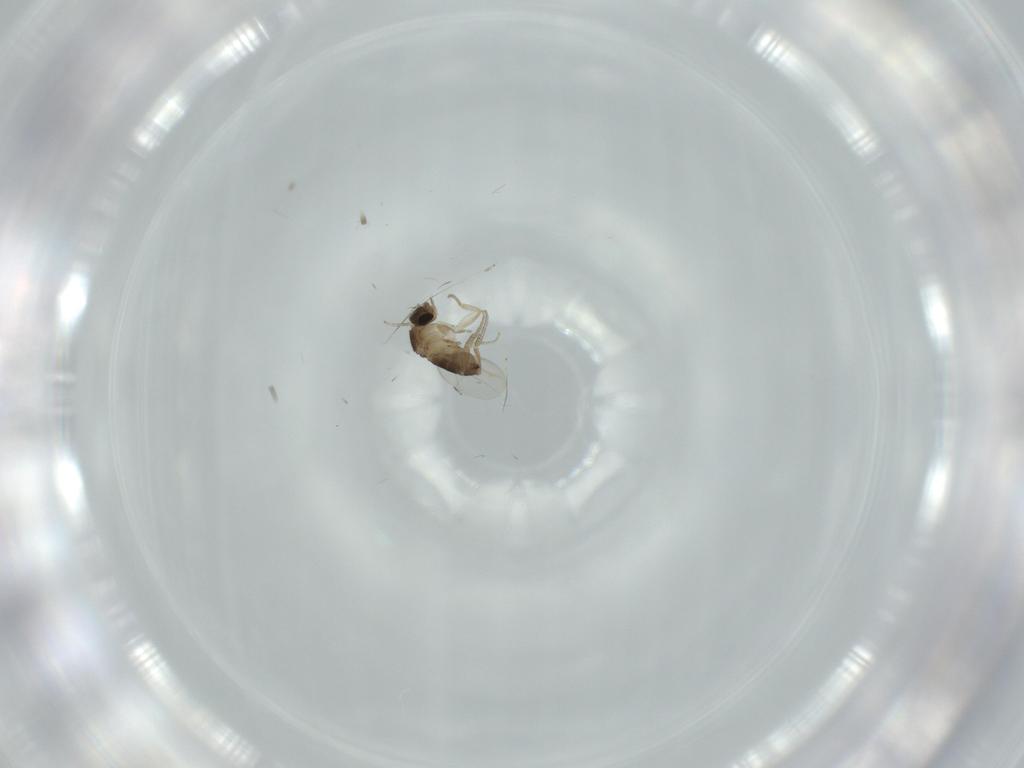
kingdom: Animalia
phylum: Arthropoda
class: Insecta
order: Diptera
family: Phoridae
